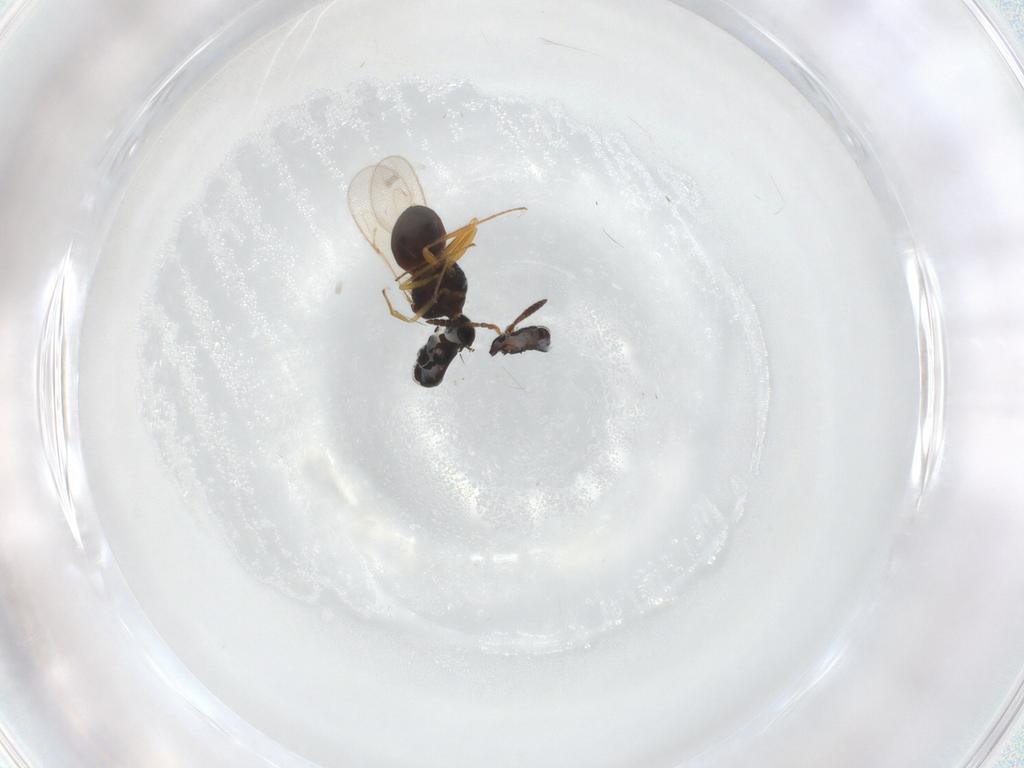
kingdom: Animalia
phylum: Arthropoda
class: Insecta
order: Hymenoptera
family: Scelionidae
